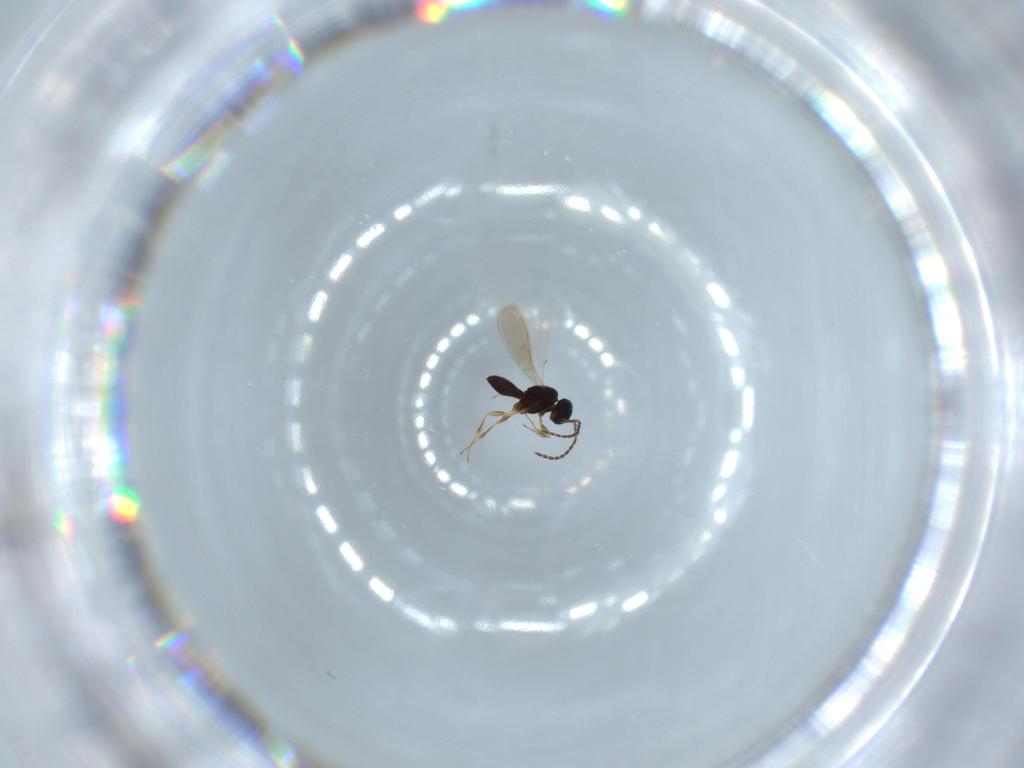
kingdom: Animalia
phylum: Arthropoda
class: Insecta
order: Hymenoptera
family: Scelionidae
